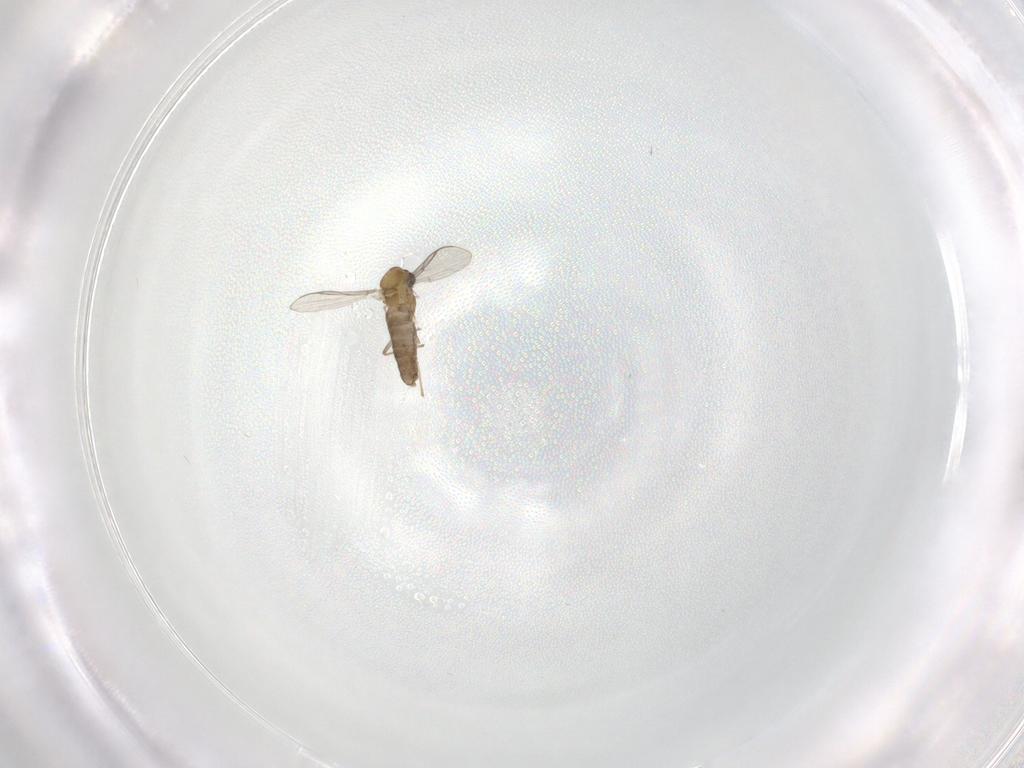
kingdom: Animalia
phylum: Arthropoda
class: Insecta
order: Diptera
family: Chironomidae
